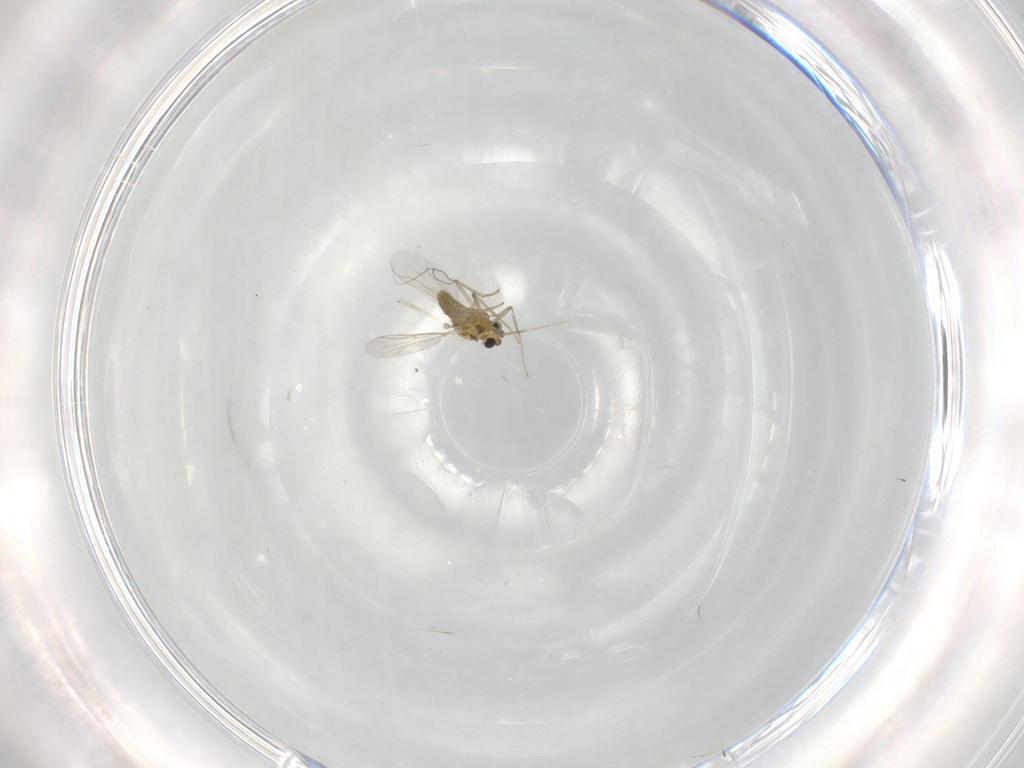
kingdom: Animalia
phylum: Arthropoda
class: Insecta
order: Diptera
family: Chironomidae
